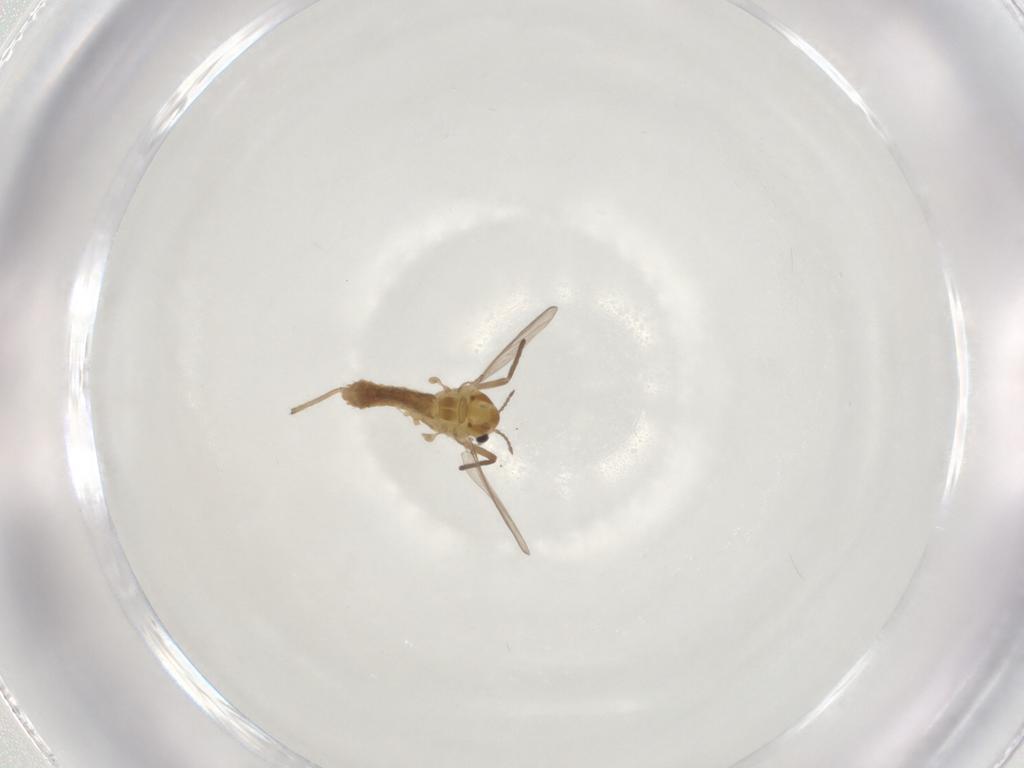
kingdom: Animalia
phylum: Arthropoda
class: Insecta
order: Diptera
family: Chironomidae
